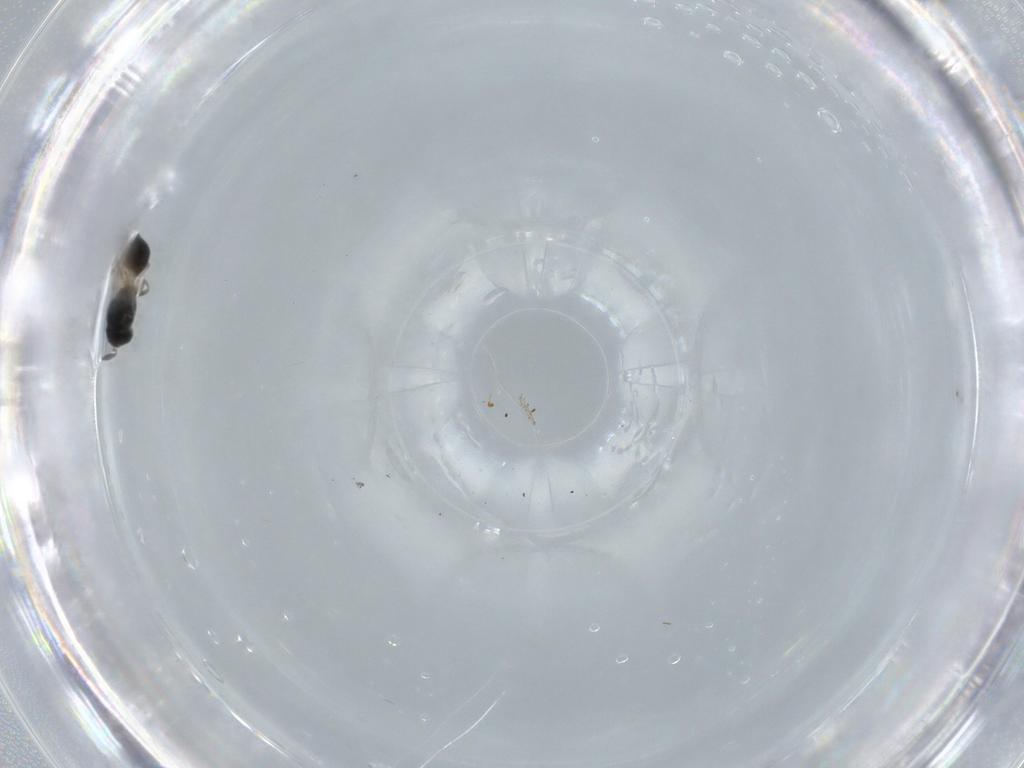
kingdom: Animalia
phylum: Arthropoda
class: Insecta
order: Hymenoptera
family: Scelionidae
